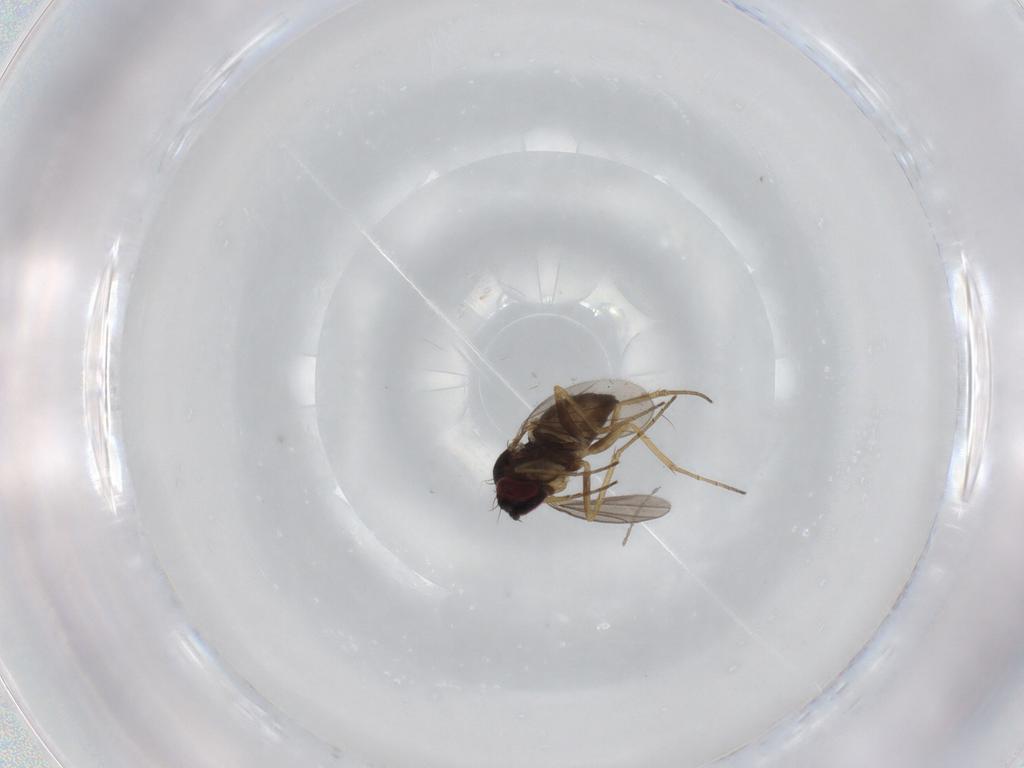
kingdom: Animalia
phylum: Arthropoda
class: Insecta
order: Diptera
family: Dolichopodidae
